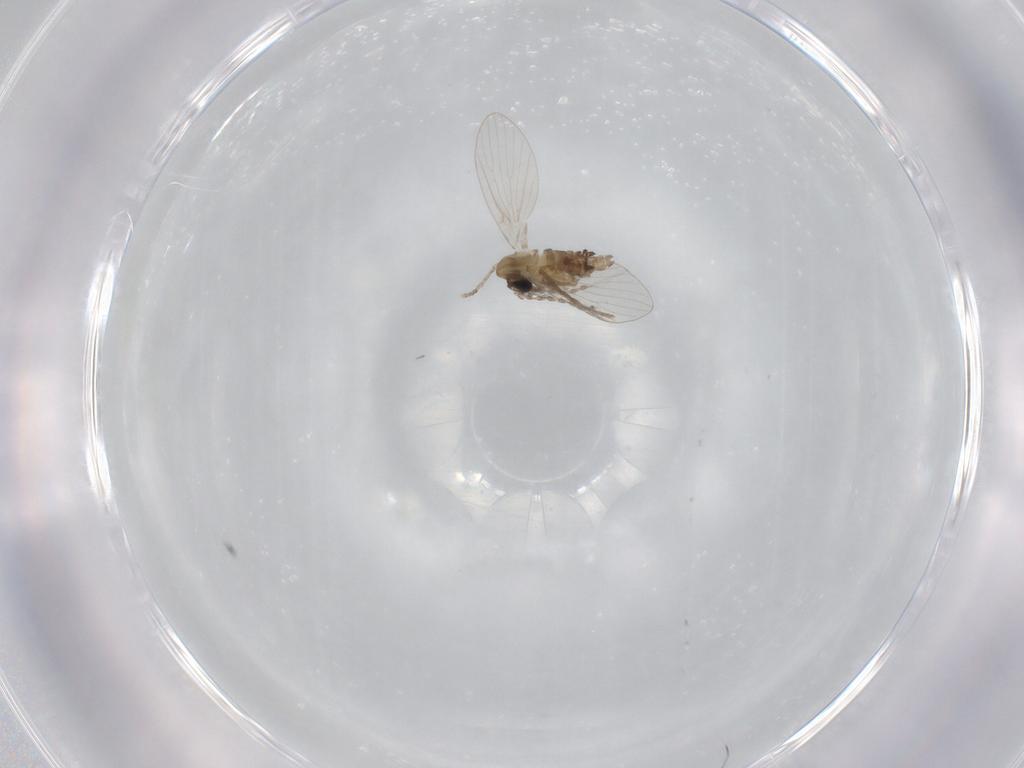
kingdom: Animalia
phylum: Arthropoda
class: Insecta
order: Diptera
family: Psychodidae
